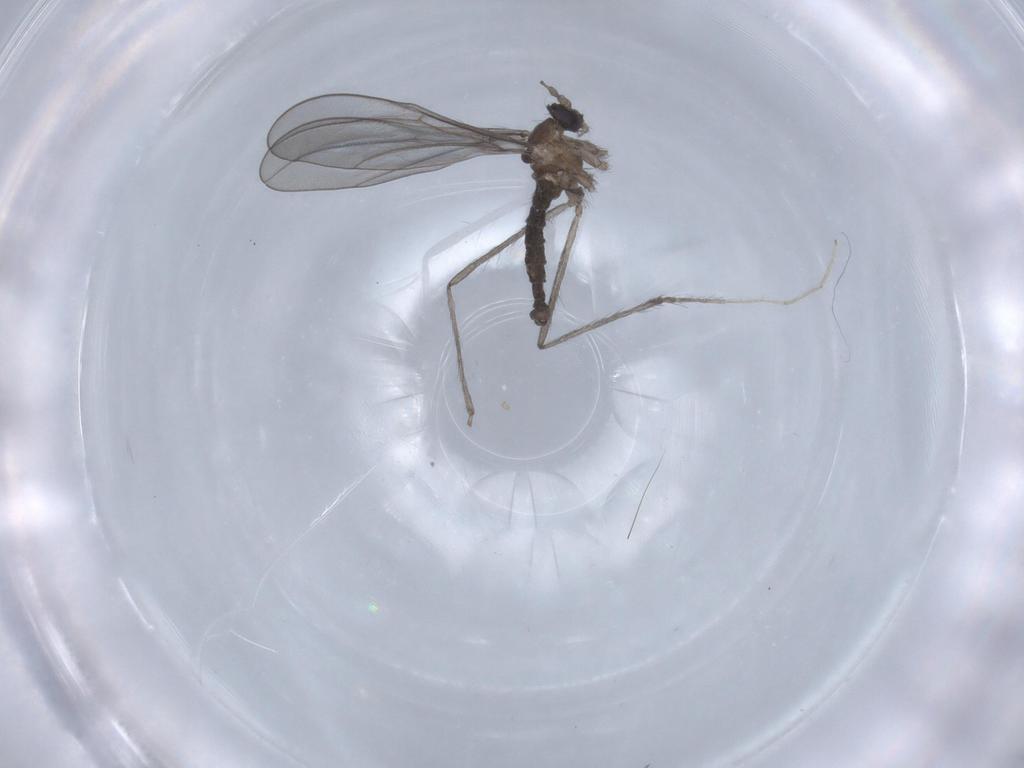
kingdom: Animalia
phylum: Arthropoda
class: Insecta
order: Diptera
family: Cecidomyiidae
